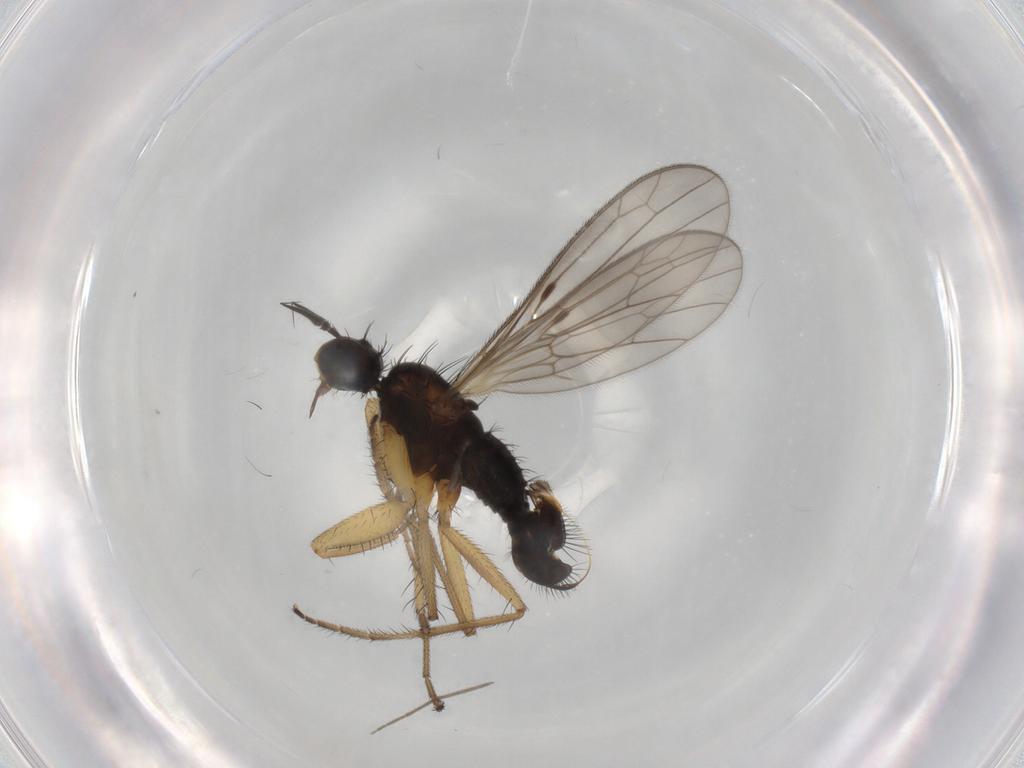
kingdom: Animalia
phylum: Arthropoda
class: Insecta
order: Diptera
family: Empididae
